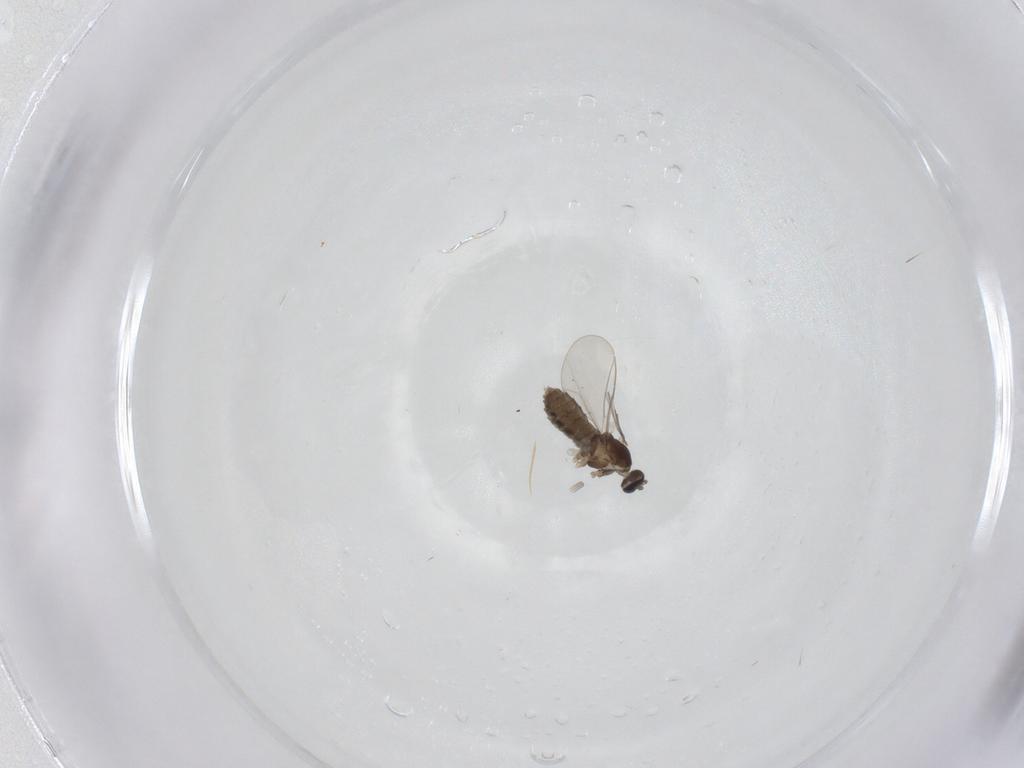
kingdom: Animalia
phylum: Arthropoda
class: Insecta
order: Diptera
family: Cecidomyiidae
